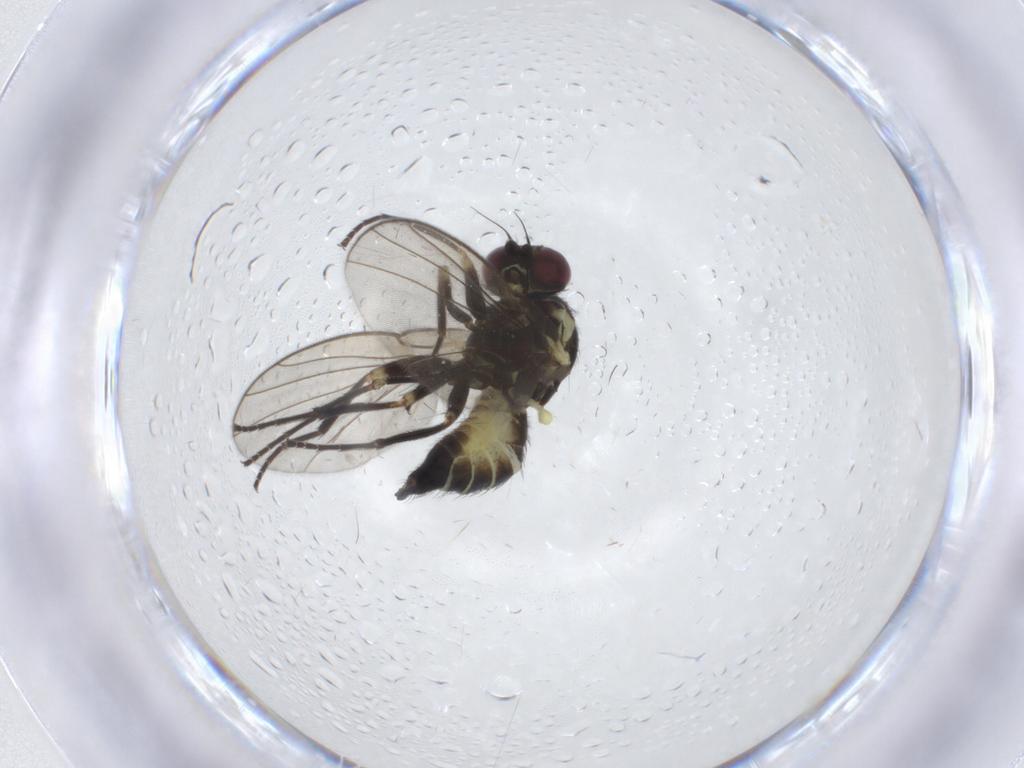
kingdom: Animalia
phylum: Arthropoda
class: Insecta
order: Diptera
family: Agromyzidae
